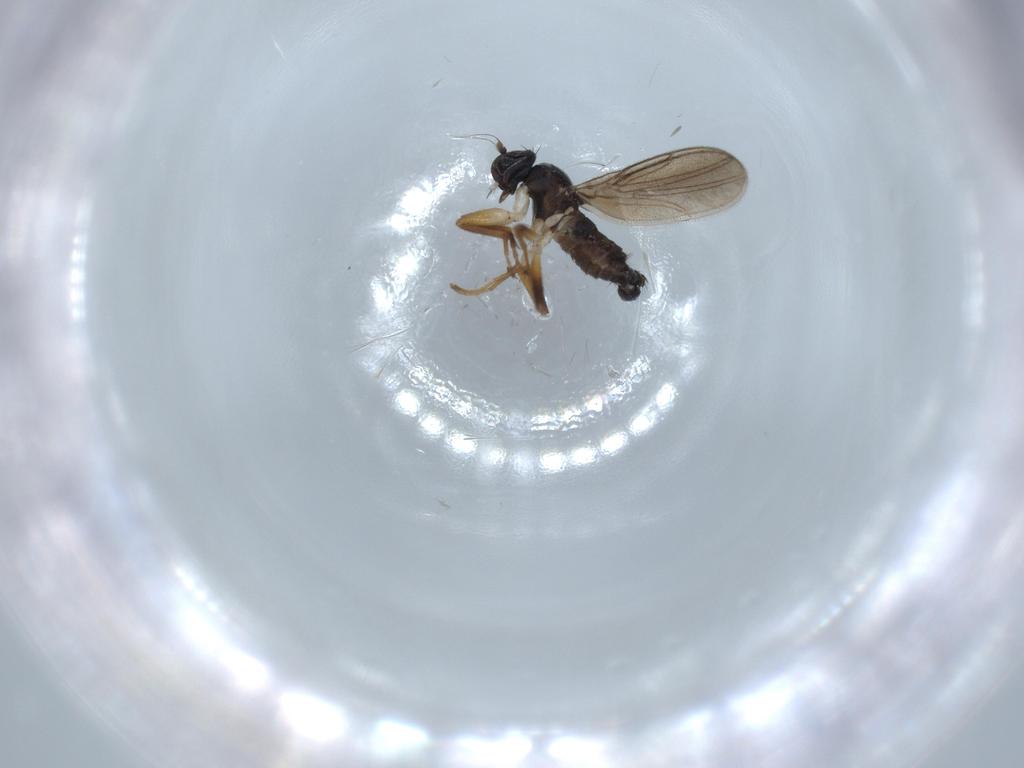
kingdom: Animalia
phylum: Arthropoda
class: Insecta
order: Diptera
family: Hybotidae
